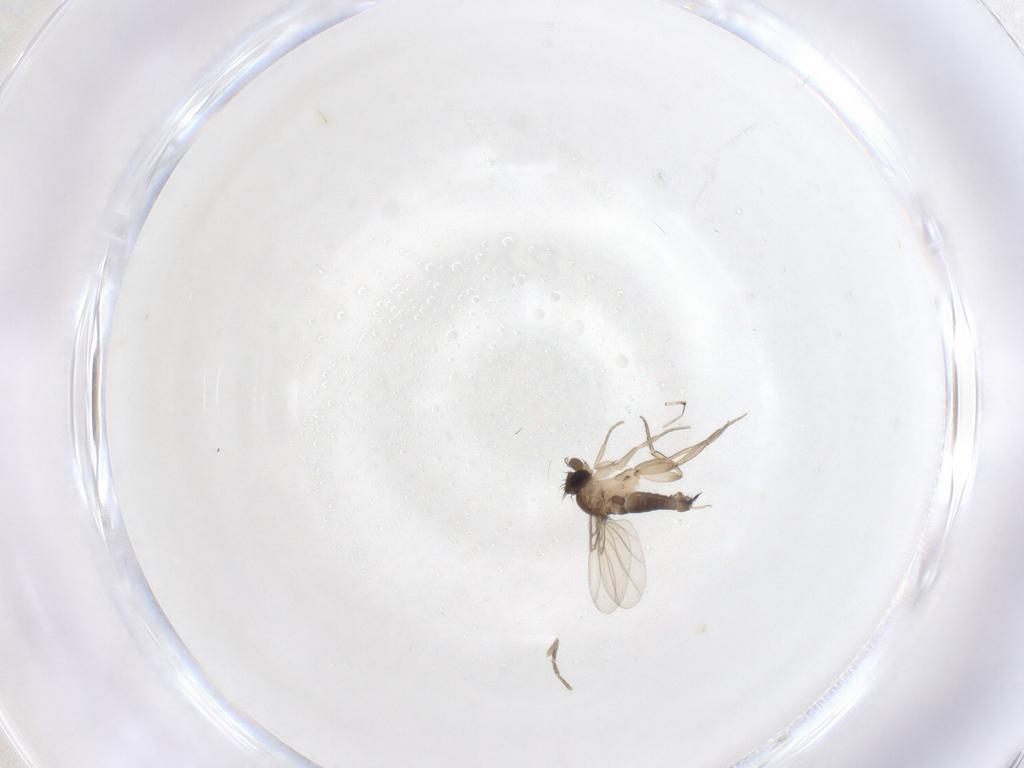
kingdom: Animalia
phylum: Arthropoda
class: Insecta
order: Diptera
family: Phoridae
